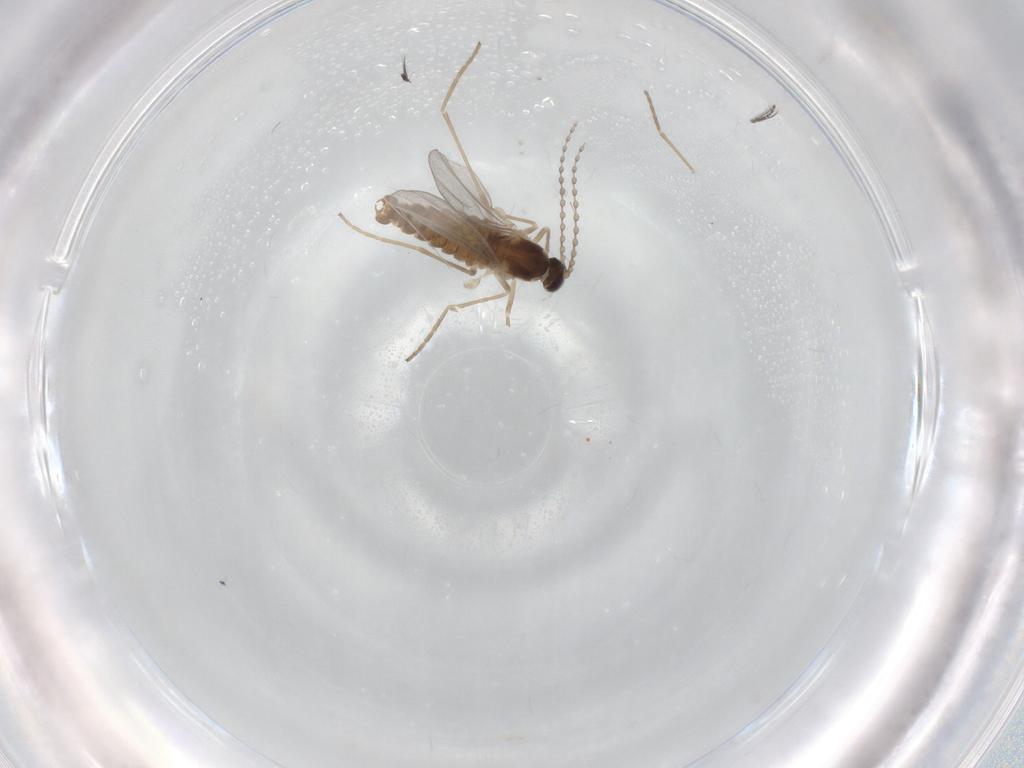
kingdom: Animalia
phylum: Arthropoda
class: Insecta
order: Diptera
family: Cecidomyiidae
